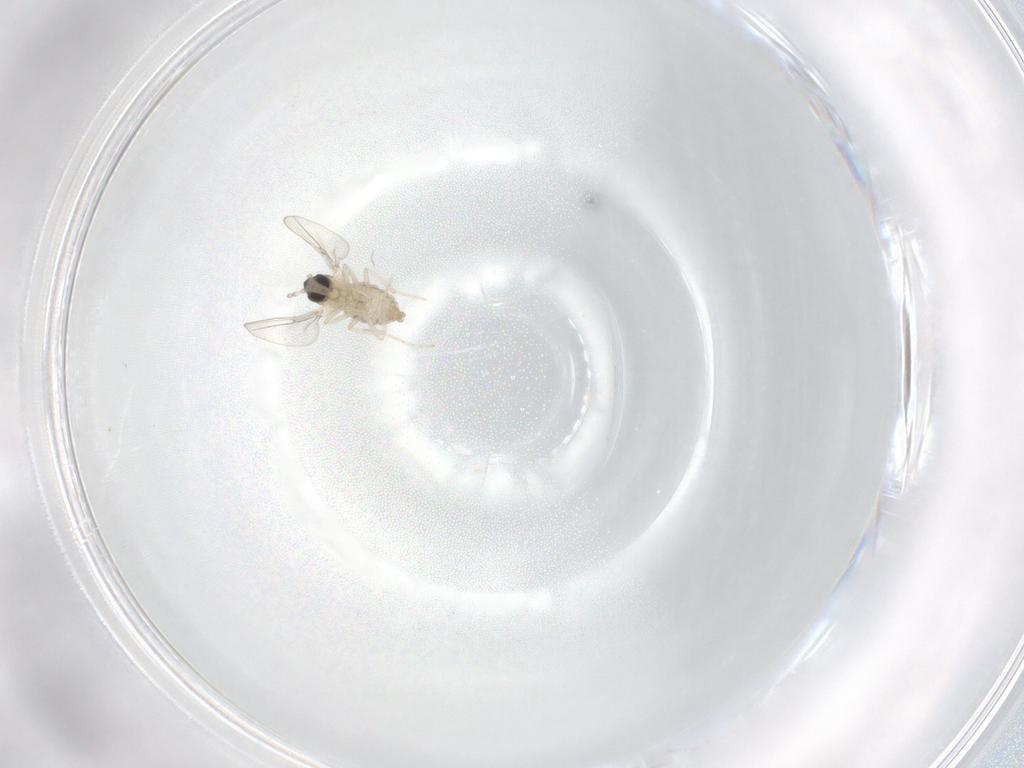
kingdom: Animalia
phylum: Arthropoda
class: Insecta
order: Diptera
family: Cecidomyiidae
